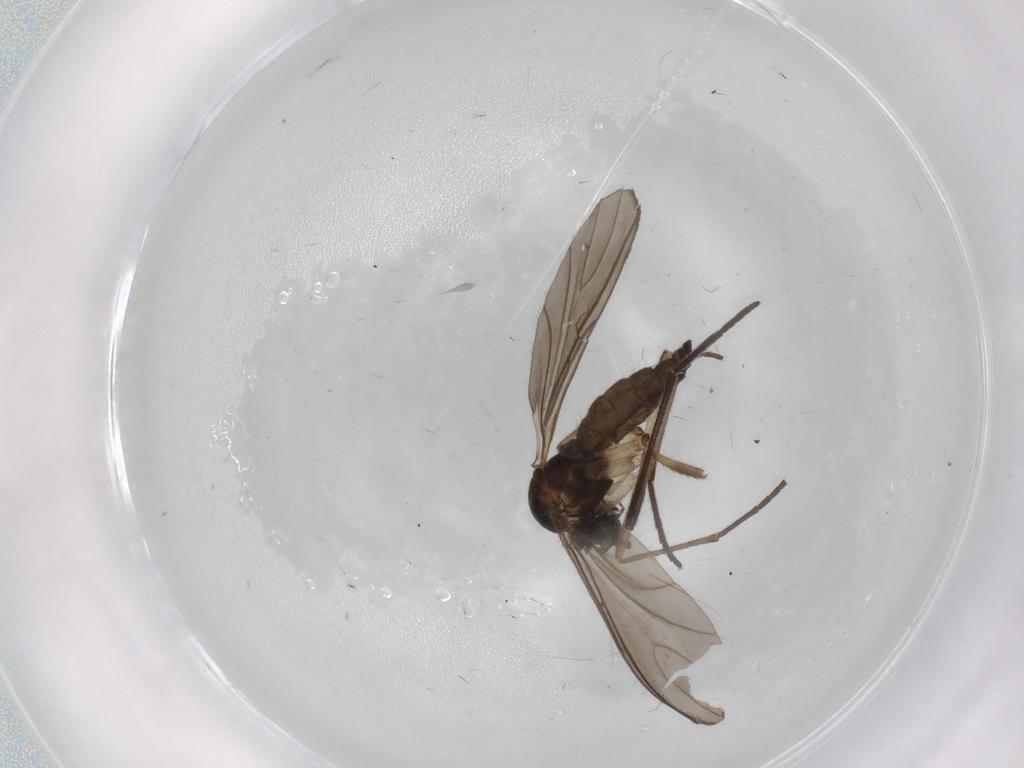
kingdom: Animalia
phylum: Arthropoda
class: Insecta
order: Diptera
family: Sciaridae
